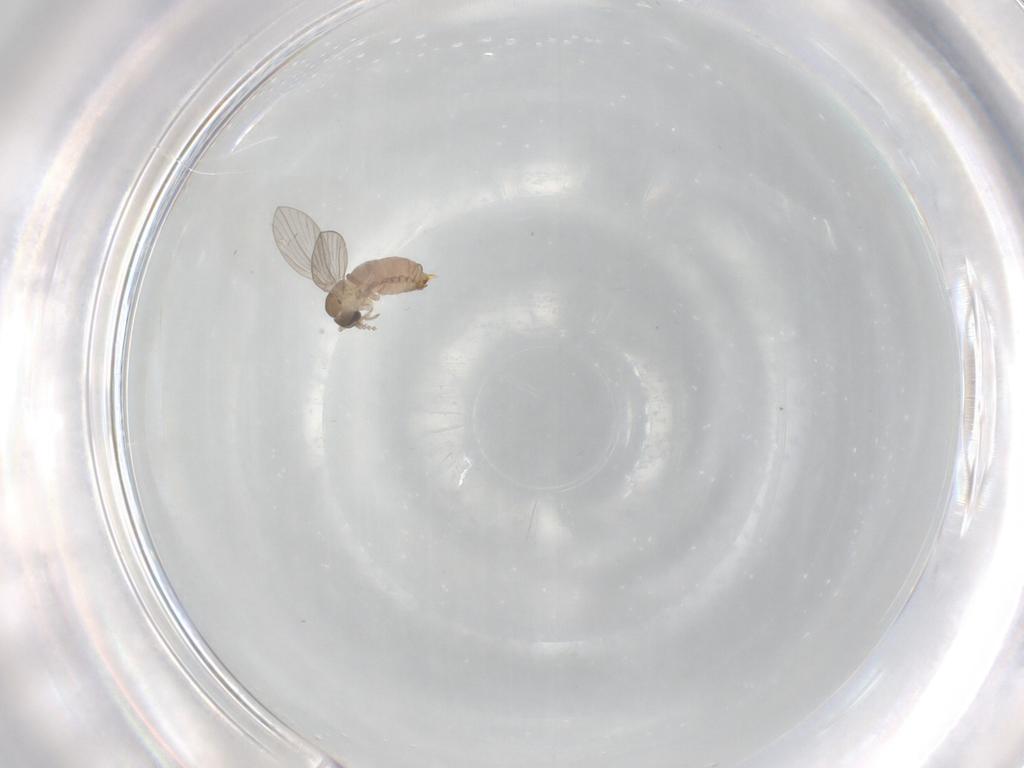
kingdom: Animalia
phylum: Arthropoda
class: Insecta
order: Diptera
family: Psychodidae
